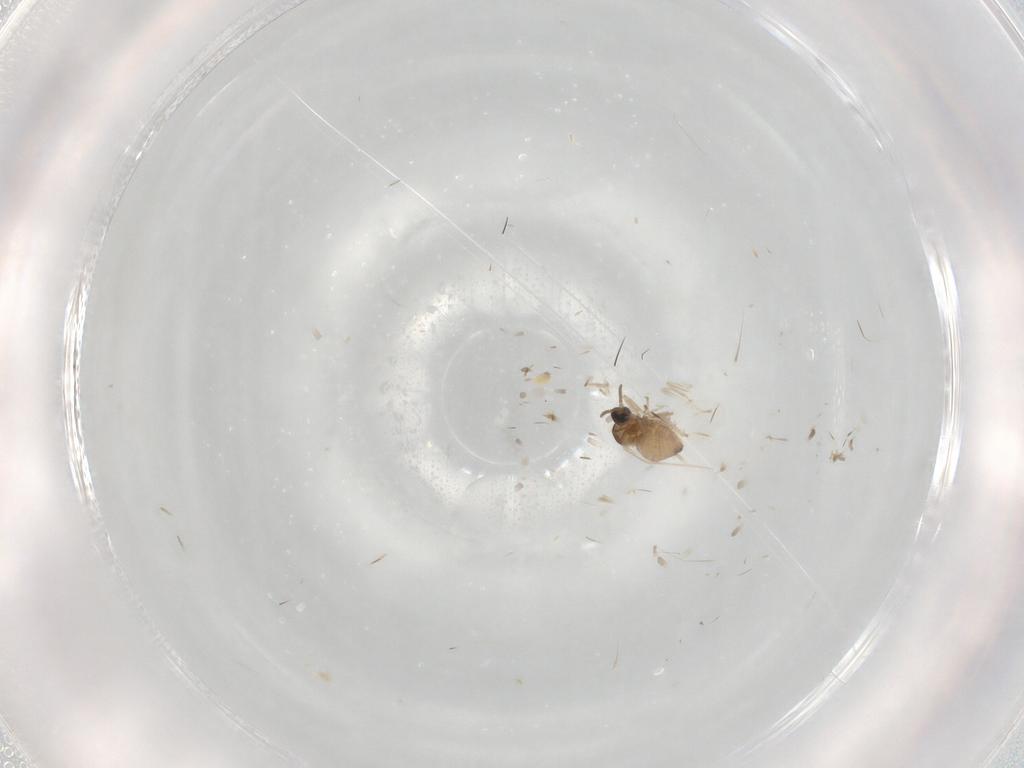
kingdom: Animalia
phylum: Arthropoda
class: Insecta
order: Diptera
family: Cecidomyiidae
